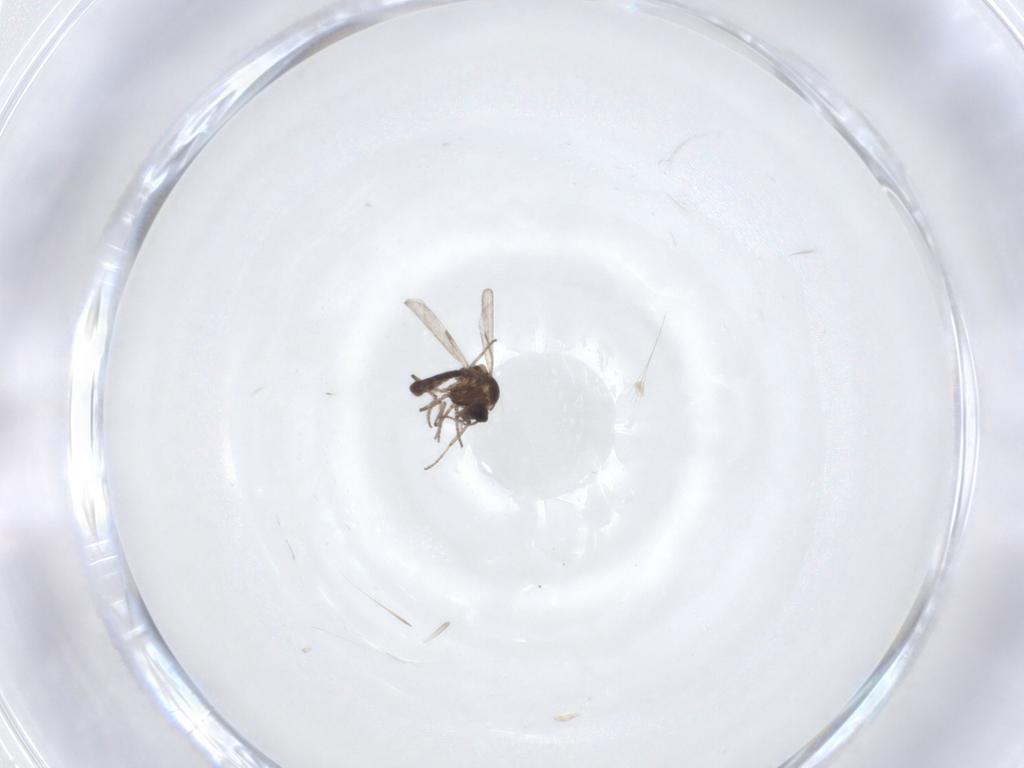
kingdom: Animalia
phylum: Arthropoda
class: Insecta
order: Diptera
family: Ceratopogonidae
